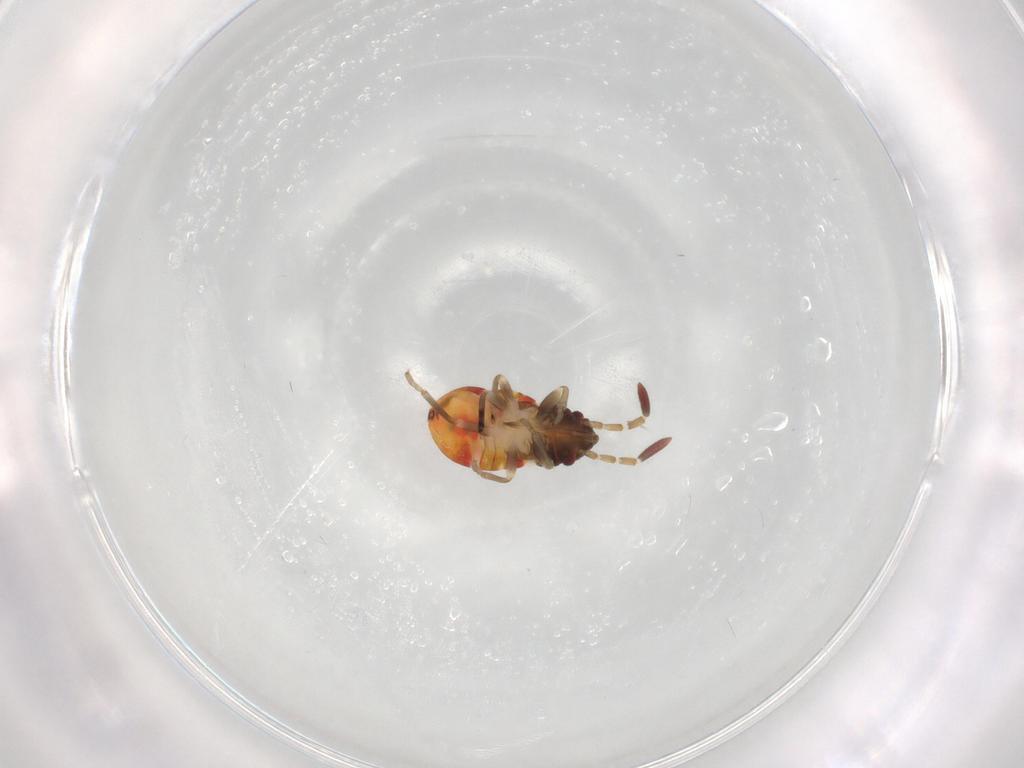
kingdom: Animalia
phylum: Arthropoda
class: Insecta
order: Hemiptera
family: Rhyparochromidae
